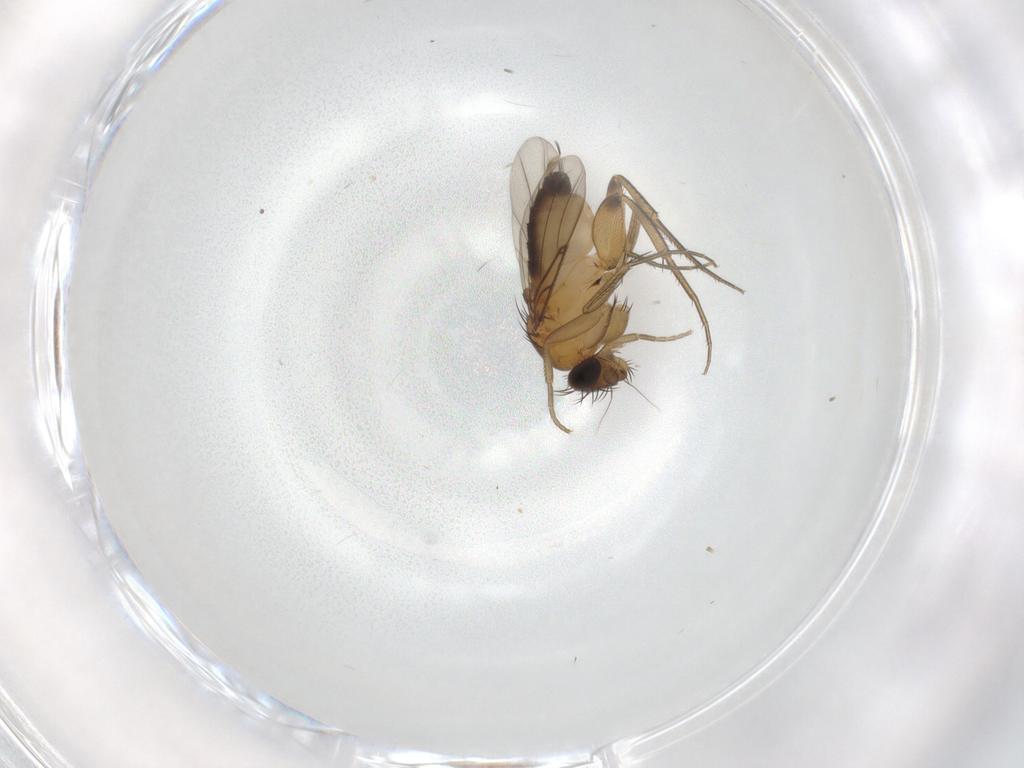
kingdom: Animalia
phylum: Arthropoda
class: Insecta
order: Diptera
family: Phoridae
